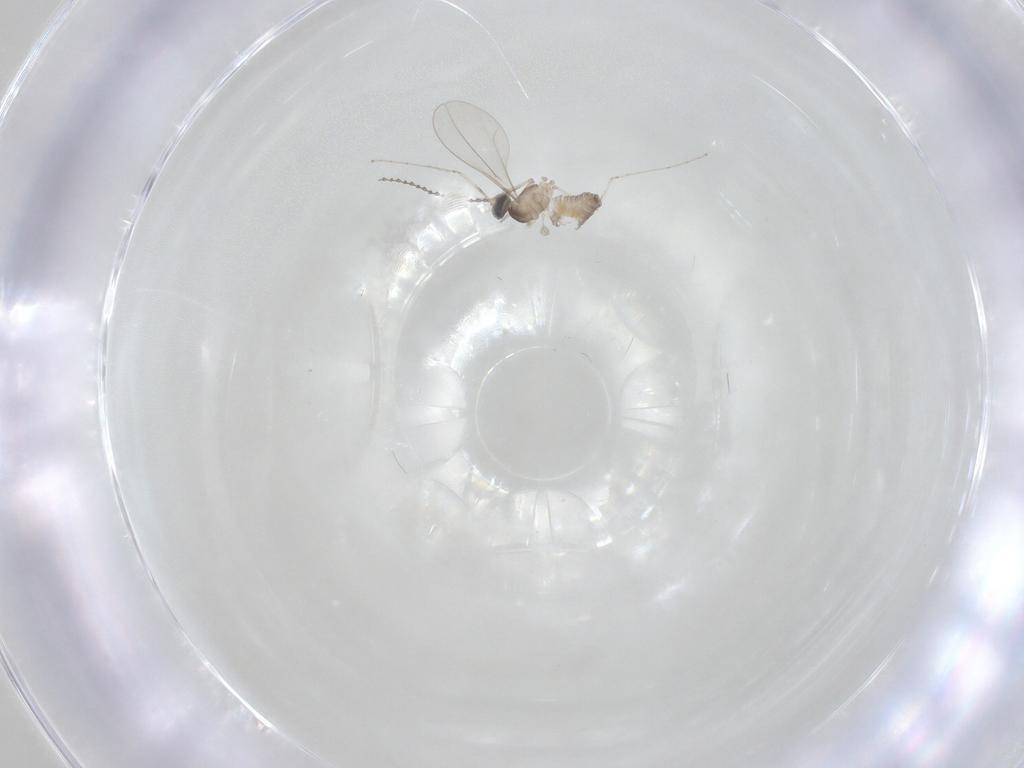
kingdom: Animalia
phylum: Arthropoda
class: Insecta
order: Diptera
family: Cecidomyiidae
